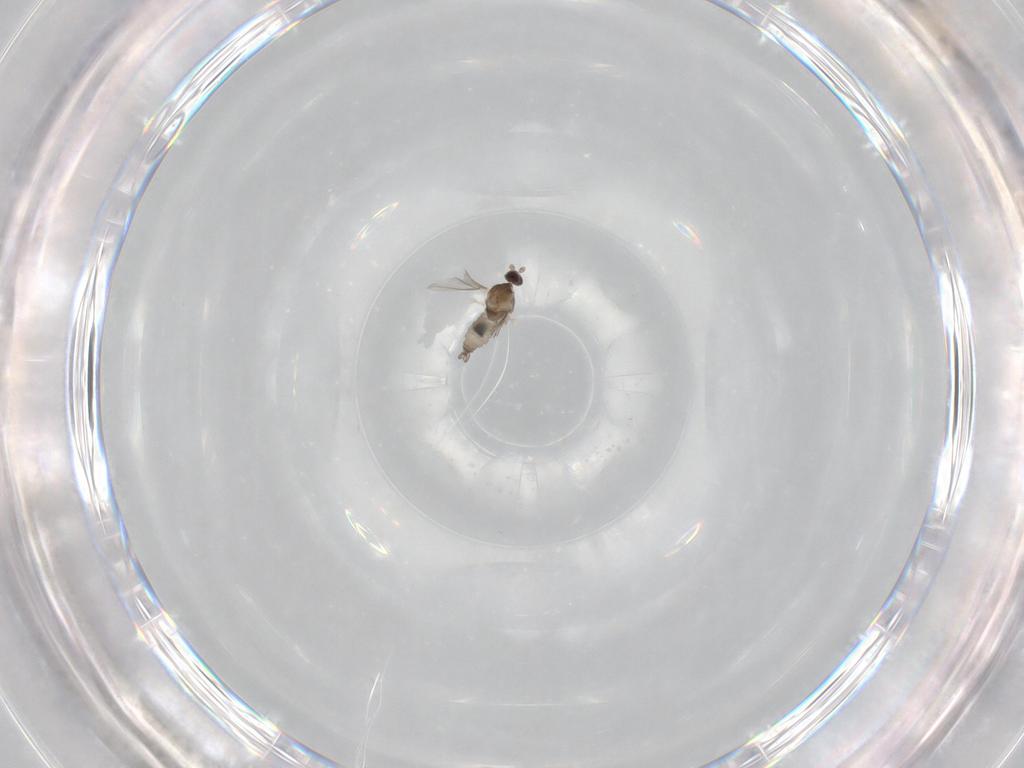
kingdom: Animalia
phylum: Arthropoda
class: Insecta
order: Diptera
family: Cecidomyiidae
